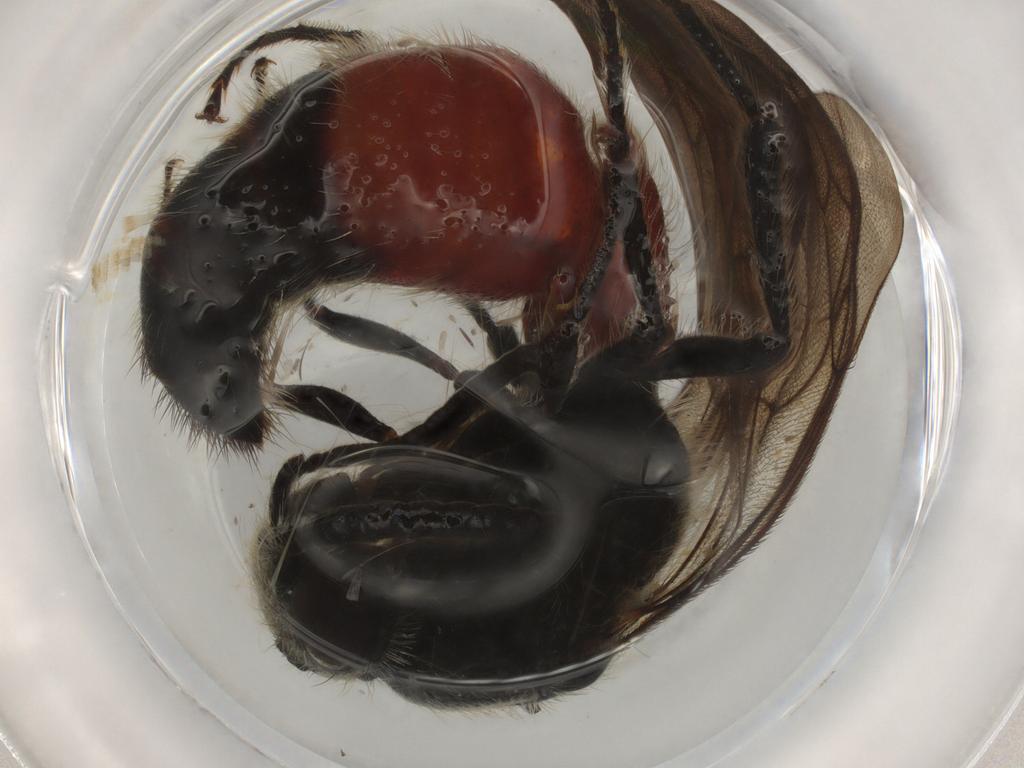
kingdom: Animalia
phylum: Arthropoda
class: Insecta
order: Hymenoptera
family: Formicidae
